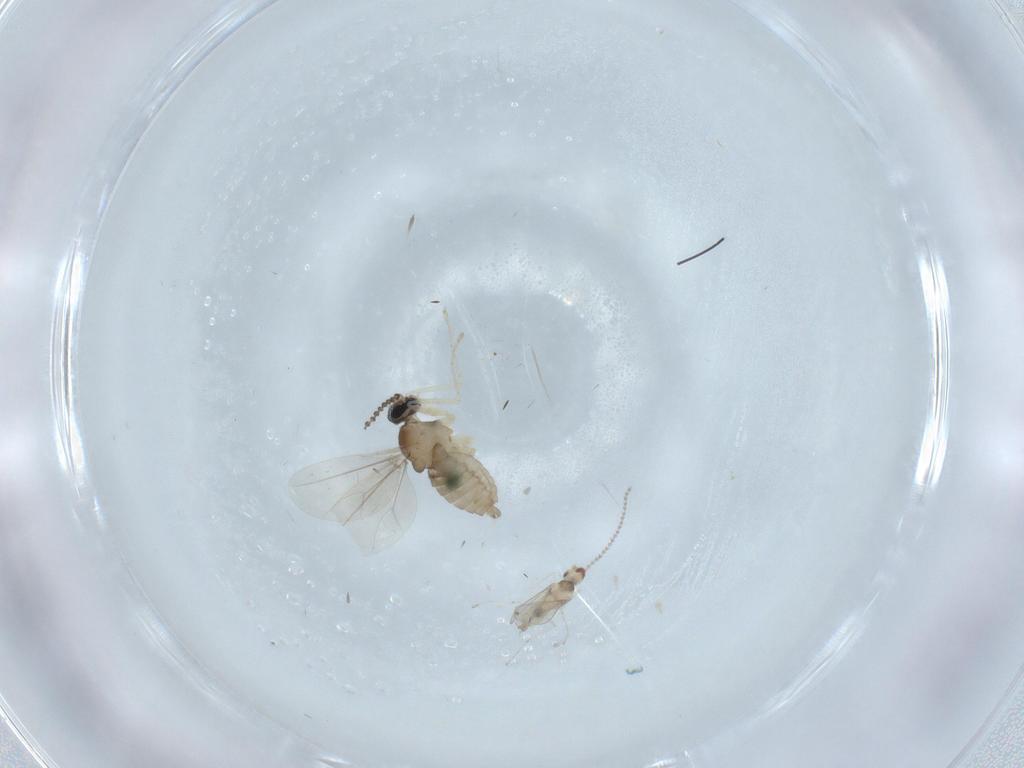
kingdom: Animalia
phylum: Arthropoda
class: Insecta
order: Diptera
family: Cecidomyiidae
